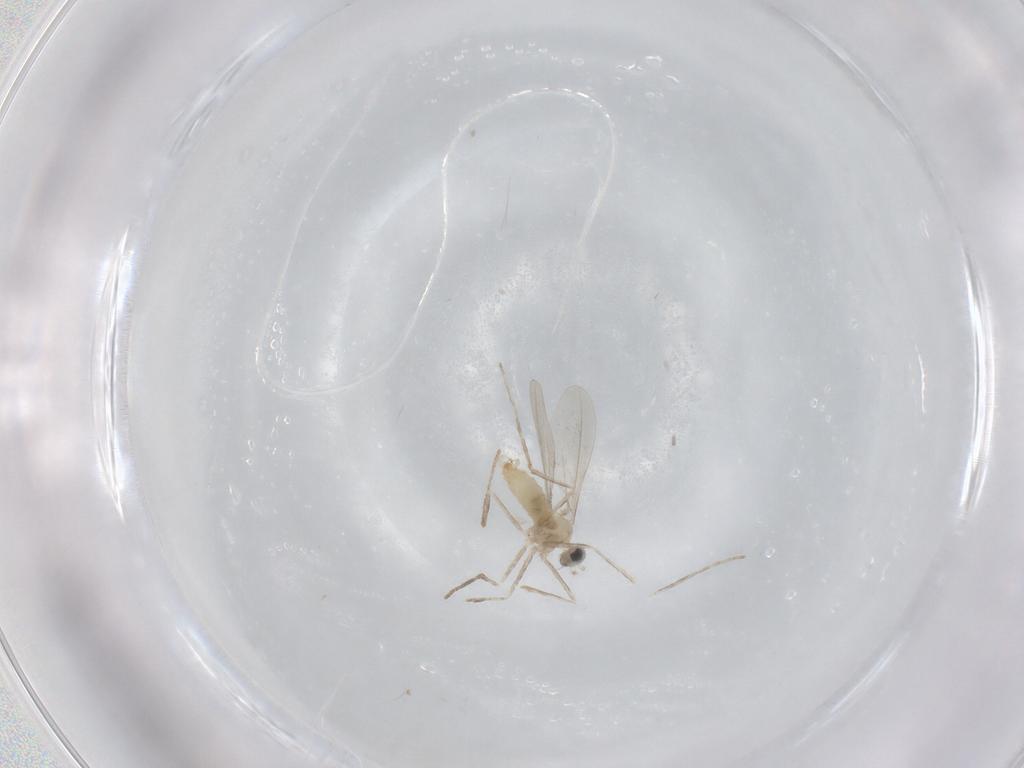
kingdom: Animalia
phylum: Arthropoda
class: Insecta
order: Diptera
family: Cecidomyiidae
